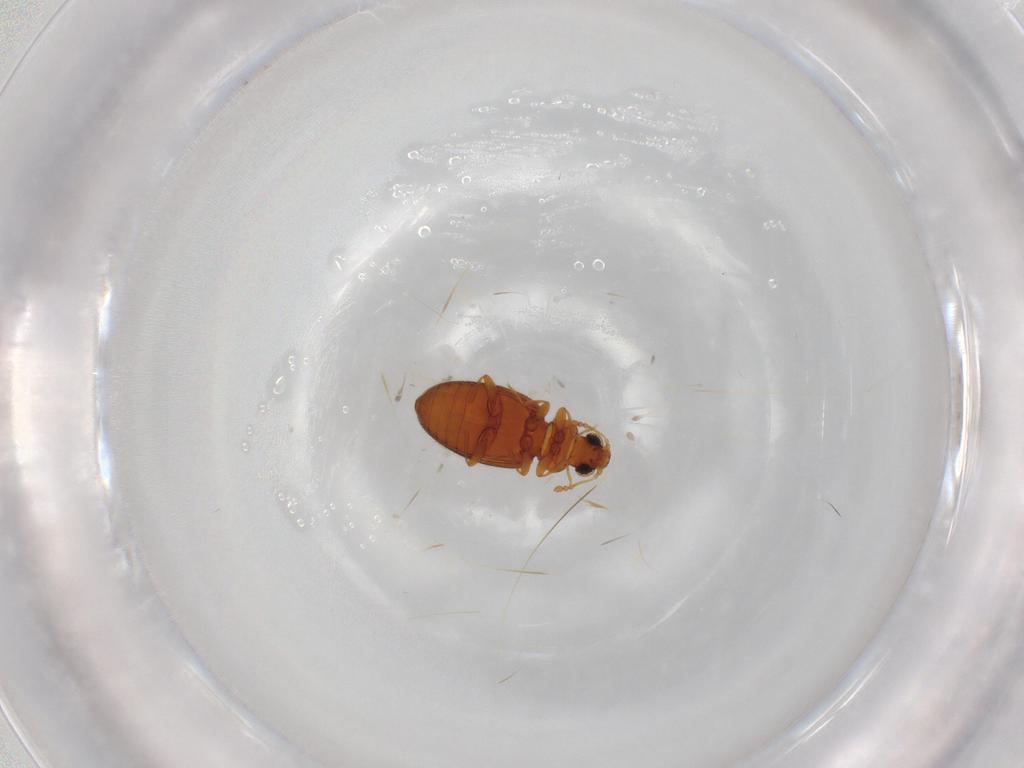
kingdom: Animalia
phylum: Arthropoda
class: Insecta
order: Coleoptera
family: Latridiidae
